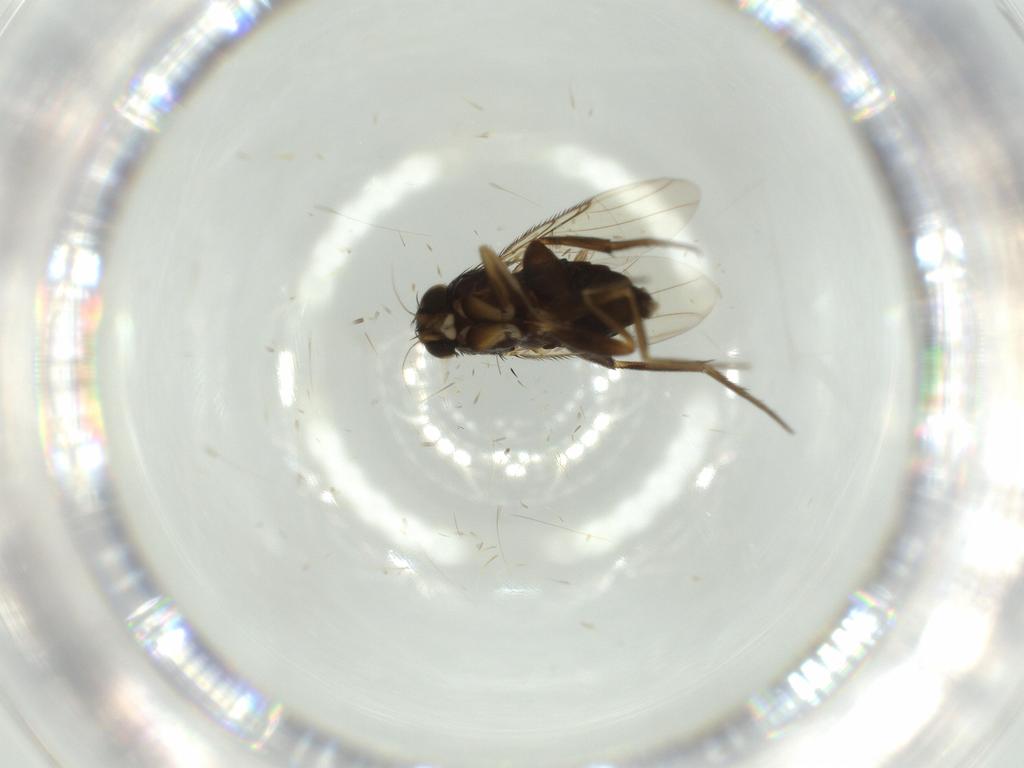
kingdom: Animalia
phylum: Arthropoda
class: Insecta
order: Diptera
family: Phoridae
